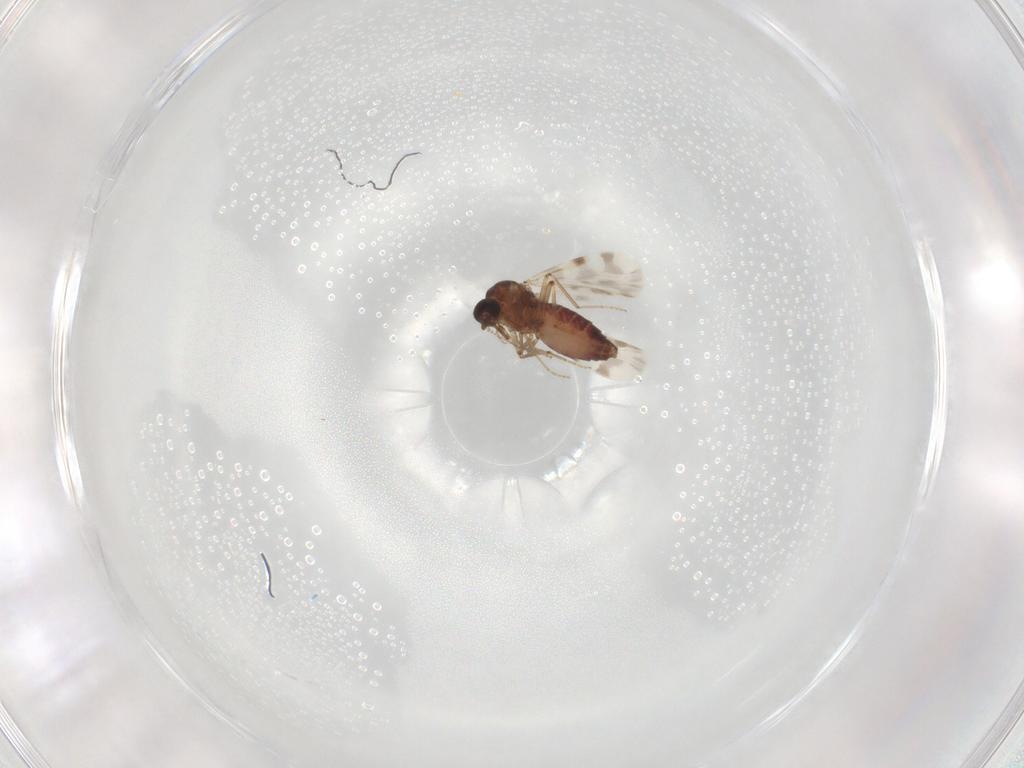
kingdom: Animalia
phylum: Arthropoda
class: Insecta
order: Diptera
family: Ceratopogonidae
